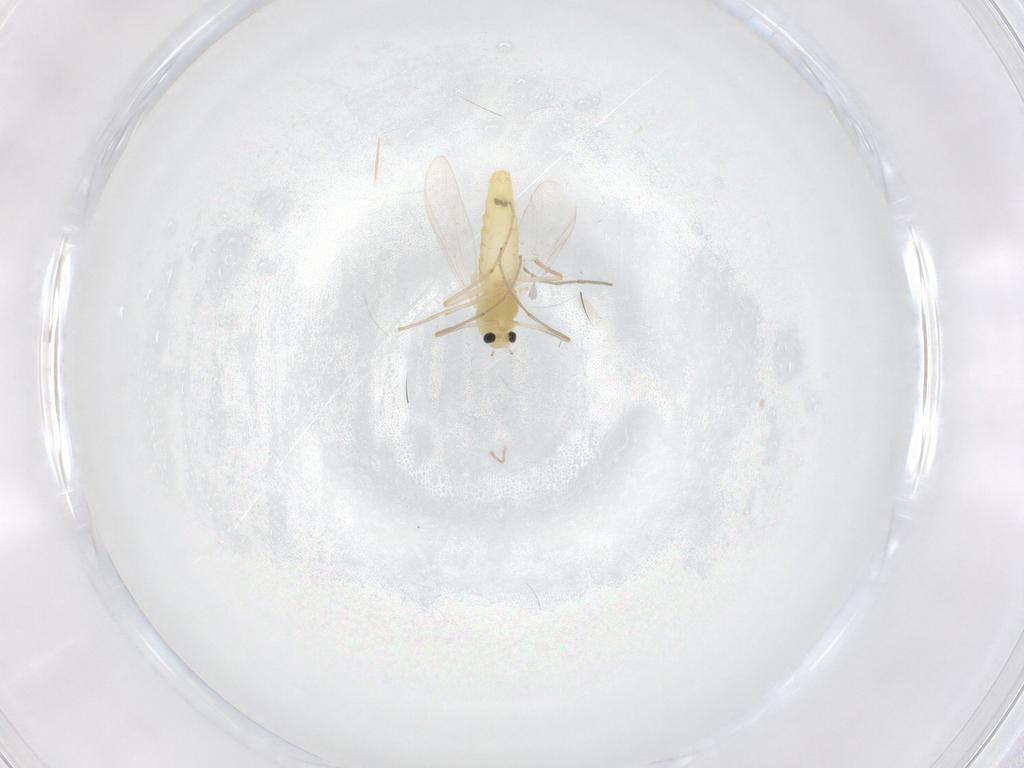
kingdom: Animalia
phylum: Arthropoda
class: Insecta
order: Diptera
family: Chironomidae
